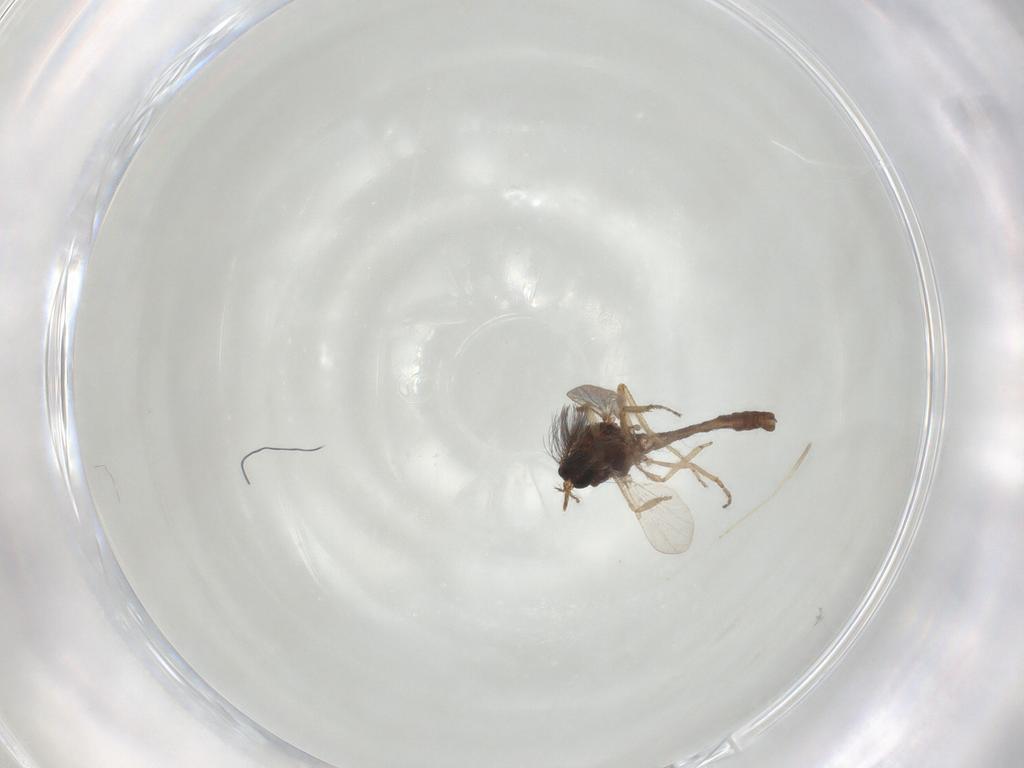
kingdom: Animalia
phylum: Arthropoda
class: Insecta
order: Diptera
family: Ceratopogonidae
